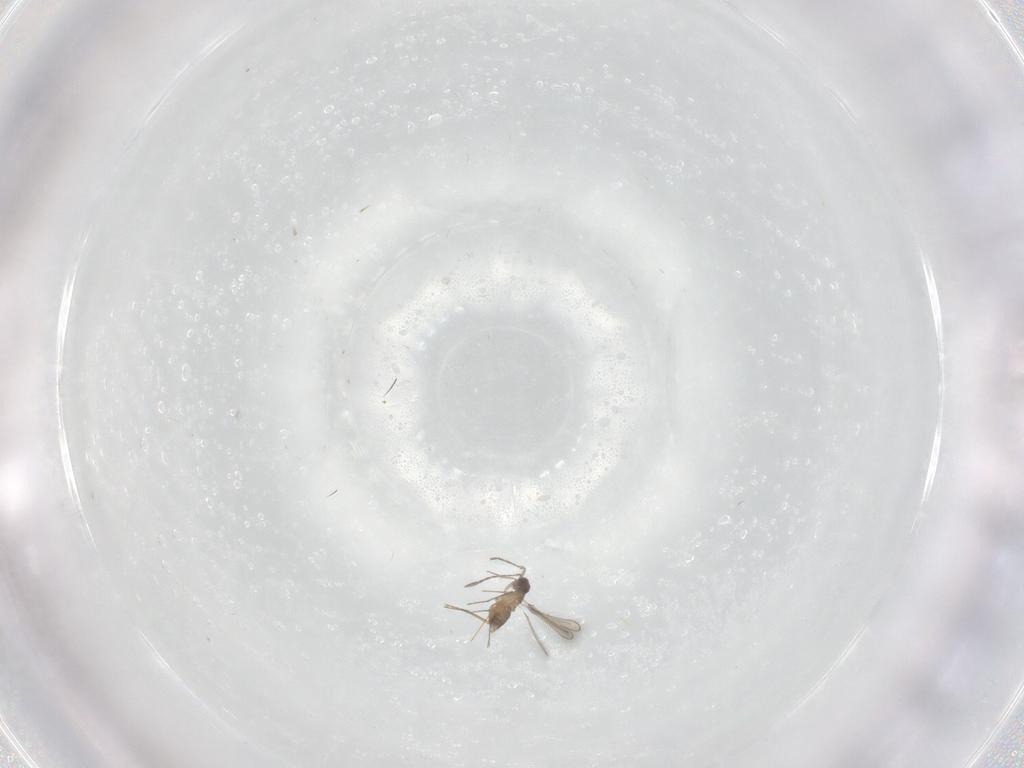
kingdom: Animalia
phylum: Arthropoda
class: Insecta
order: Hymenoptera
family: Mymaridae
